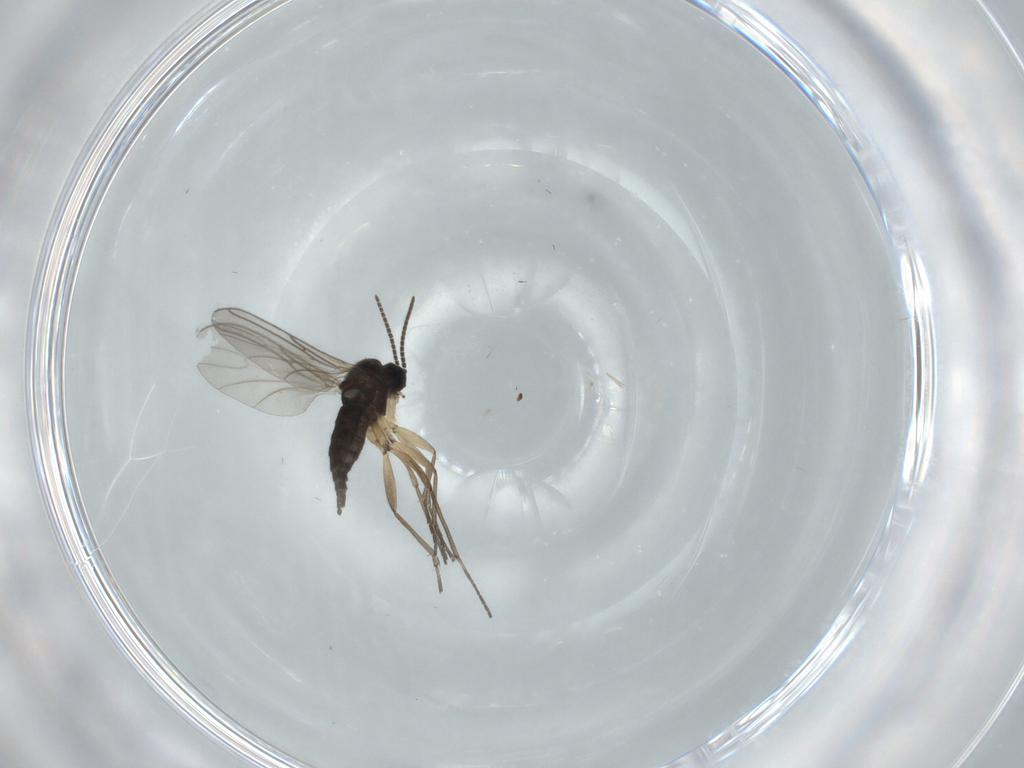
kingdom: Animalia
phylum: Arthropoda
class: Insecta
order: Diptera
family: Sciaridae
